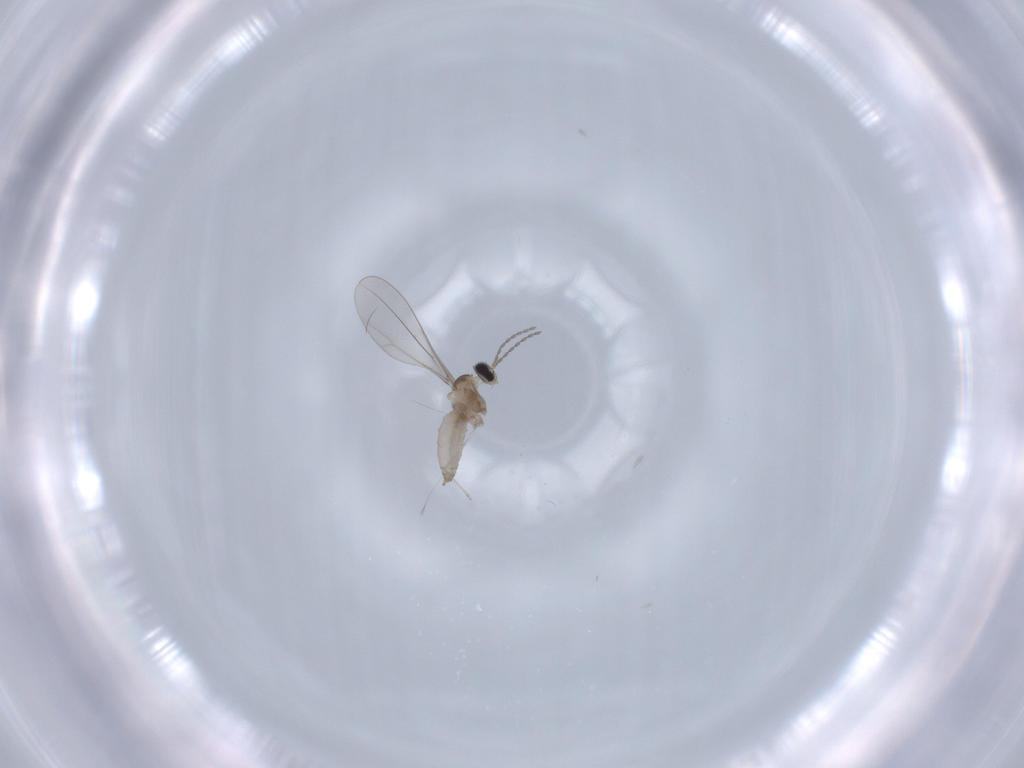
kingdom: Animalia
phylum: Arthropoda
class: Insecta
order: Diptera
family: Cecidomyiidae
